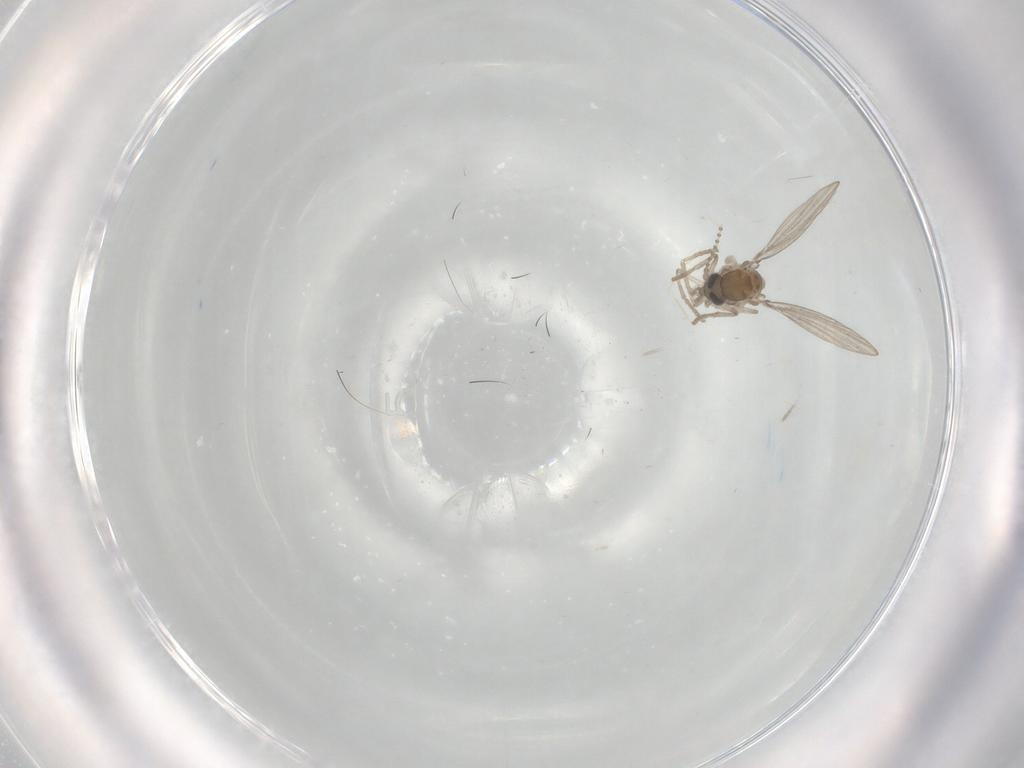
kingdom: Animalia
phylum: Arthropoda
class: Insecta
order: Diptera
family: Psychodidae
